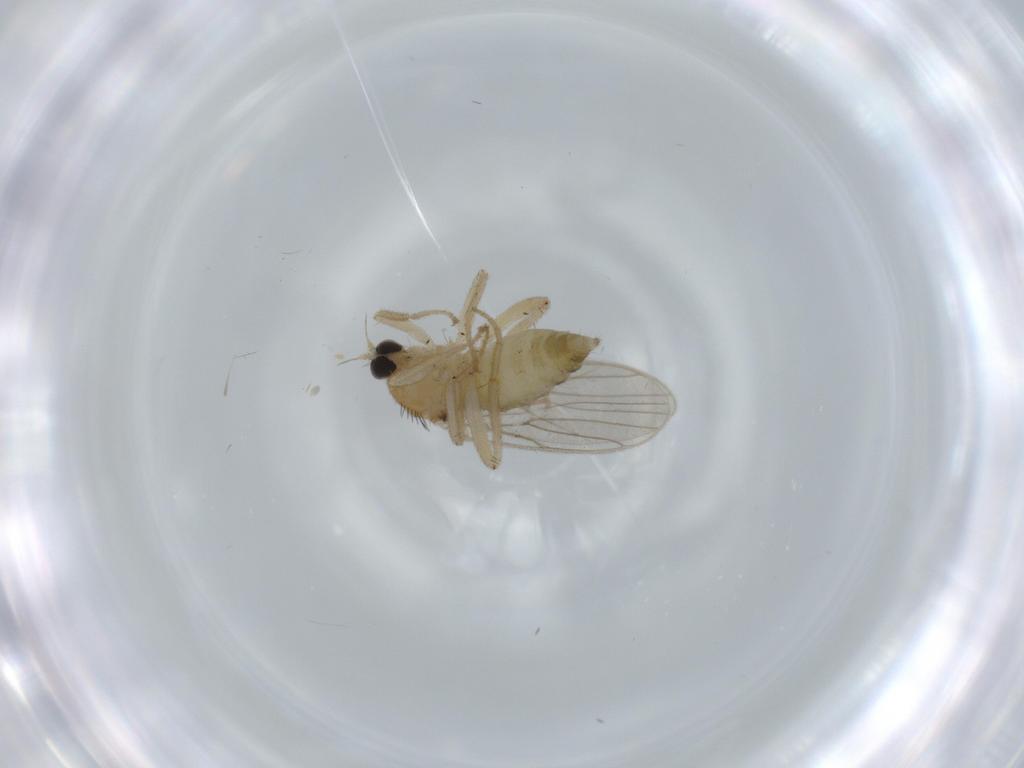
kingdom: Animalia
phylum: Arthropoda
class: Insecta
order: Diptera
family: Hybotidae
